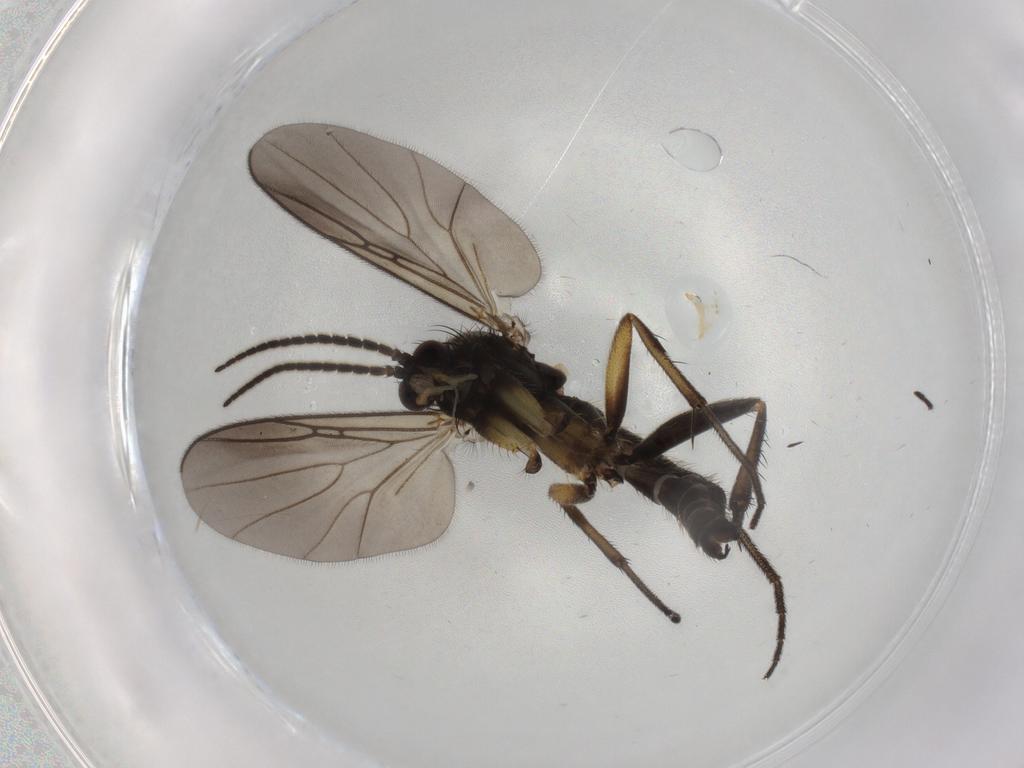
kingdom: Animalia
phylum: Arthropoda
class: Insecta
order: Diptera
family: Mycetophilidae
